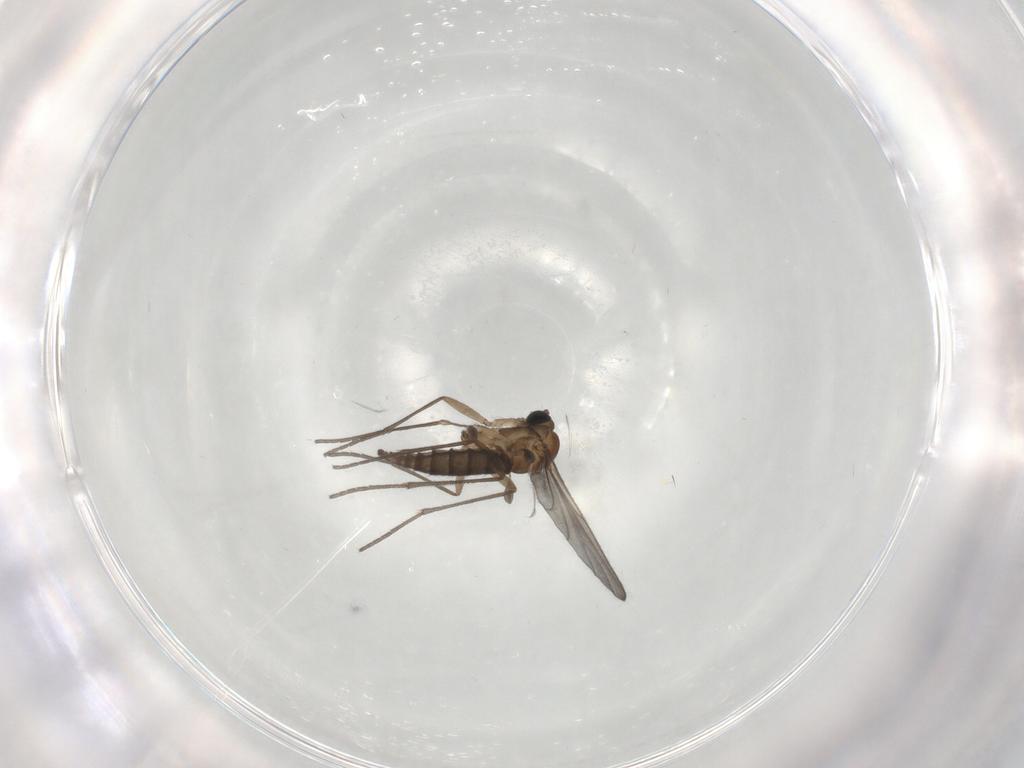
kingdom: Animalia
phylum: Arthropoda
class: Insecta
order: Diptera
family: Sciaridae
